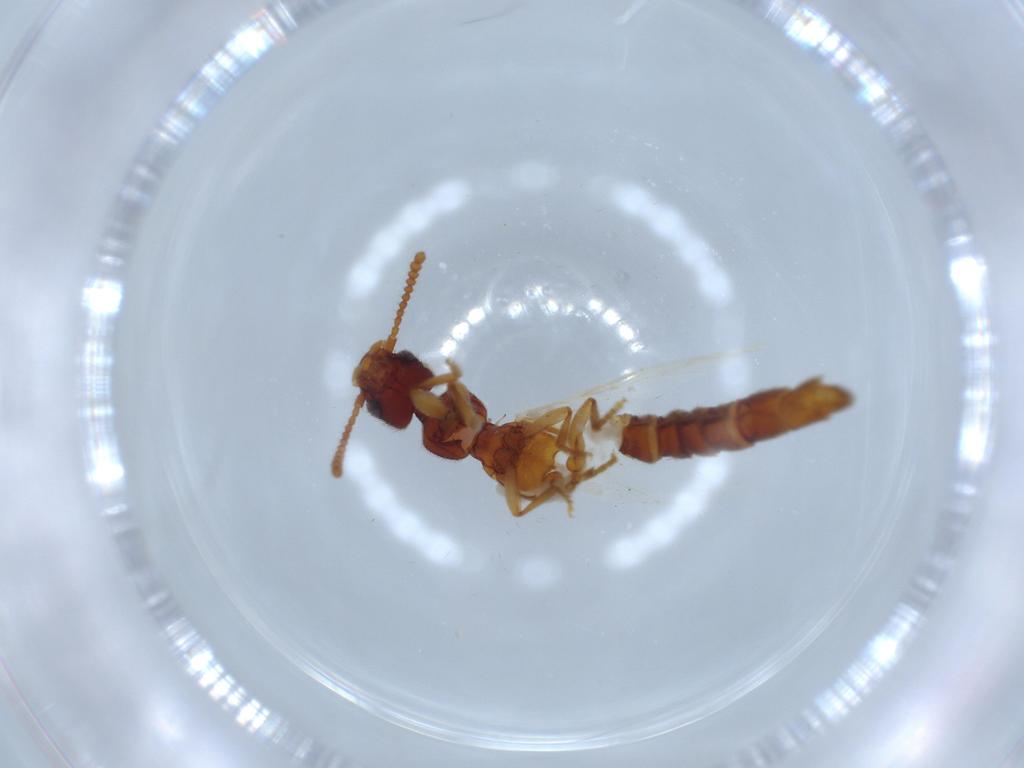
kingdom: Animalia
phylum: Arthropoda
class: Insecta
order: Coleoptera
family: Staphylinidae
